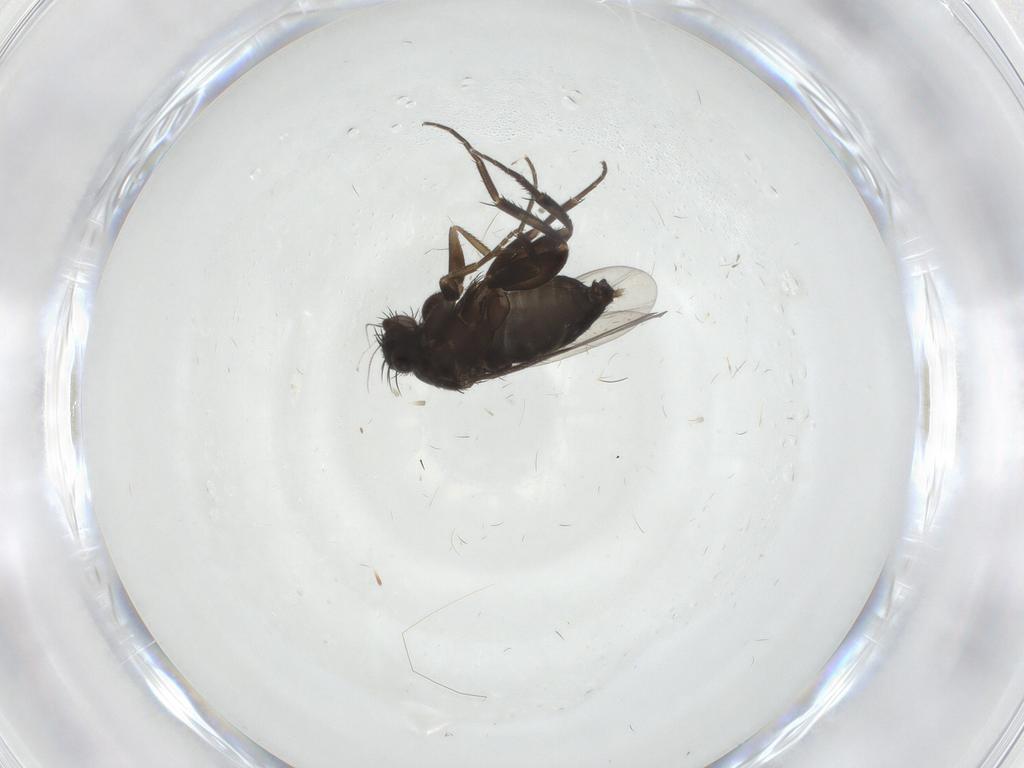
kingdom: Animalia
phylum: Arthropoda
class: Insecta
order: Diptera
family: Phoridae
